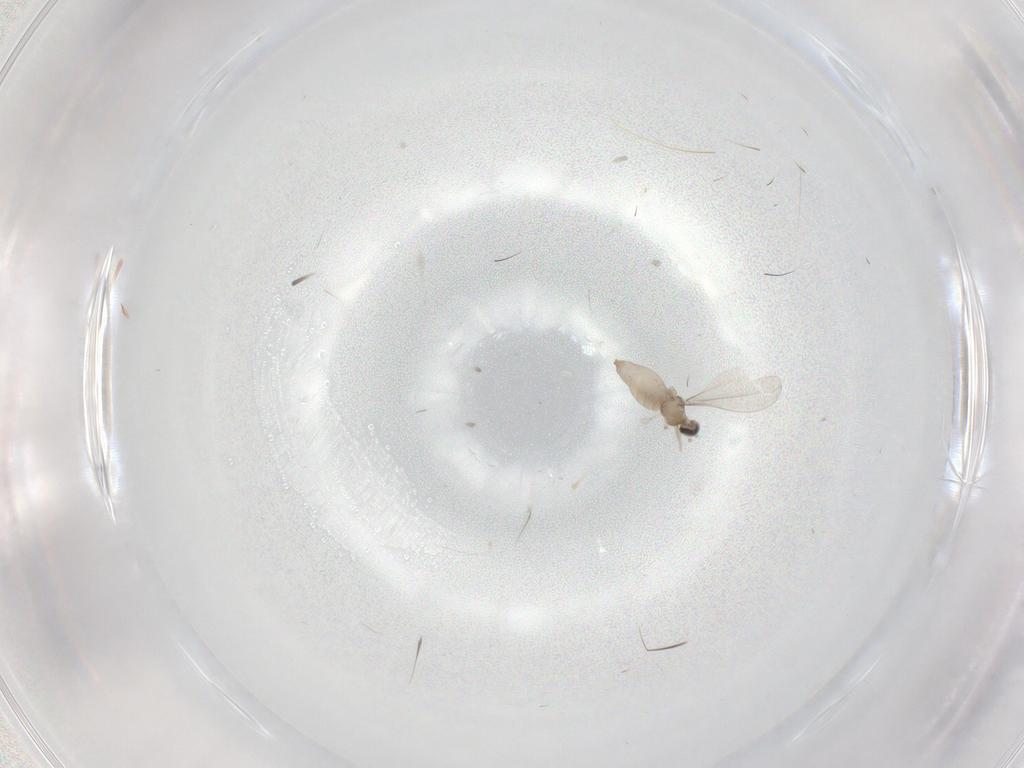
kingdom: Animalia
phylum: Arthropoda
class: Insecta
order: Diptera
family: Cecidomyiidae
